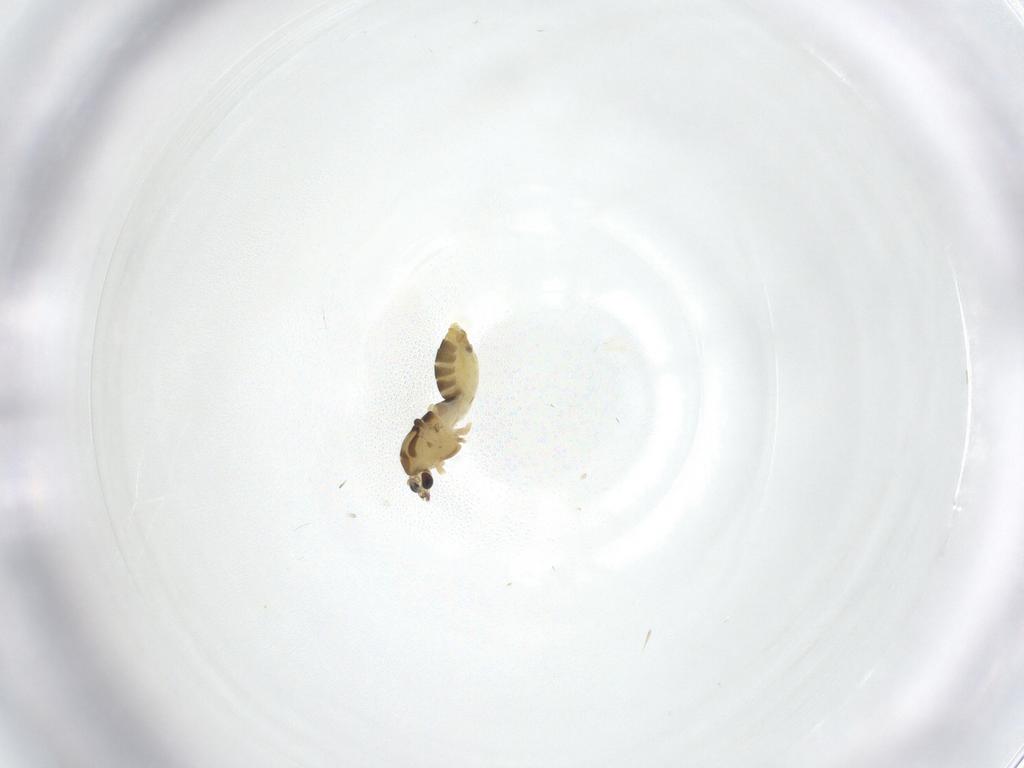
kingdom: Animalia
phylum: Arthropoda
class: Insecta
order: Diptera
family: Chironomidae
